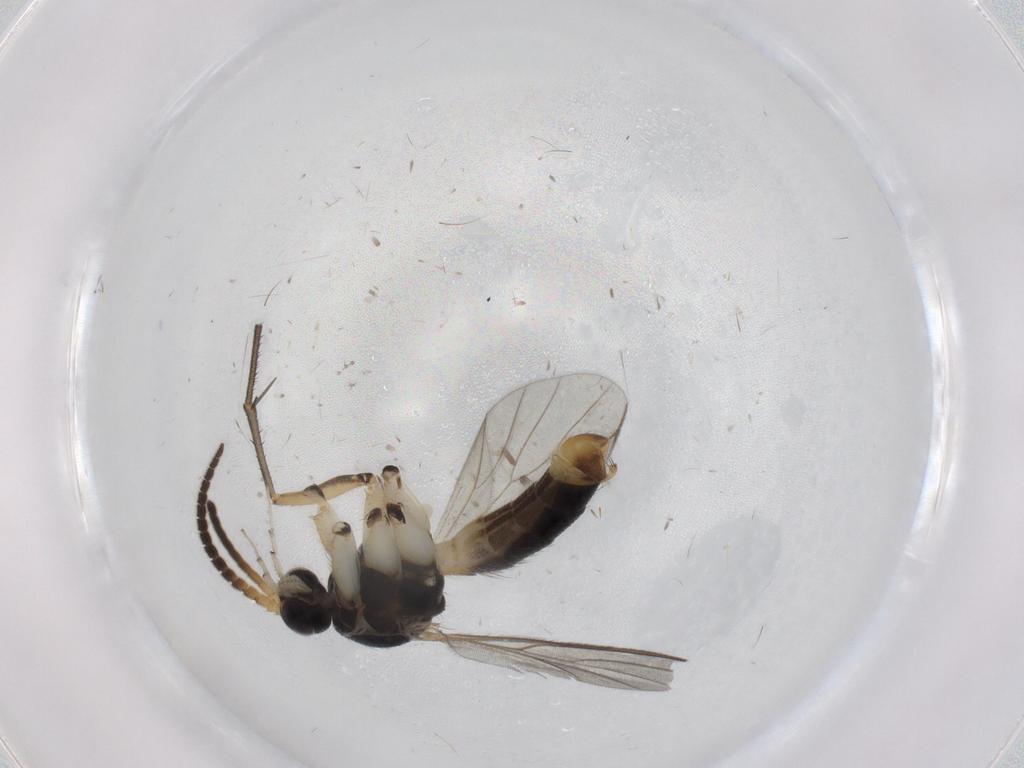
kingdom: Animalia
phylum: Arthropoda
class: Insecta
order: Diptera
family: Cecidomyiidae
